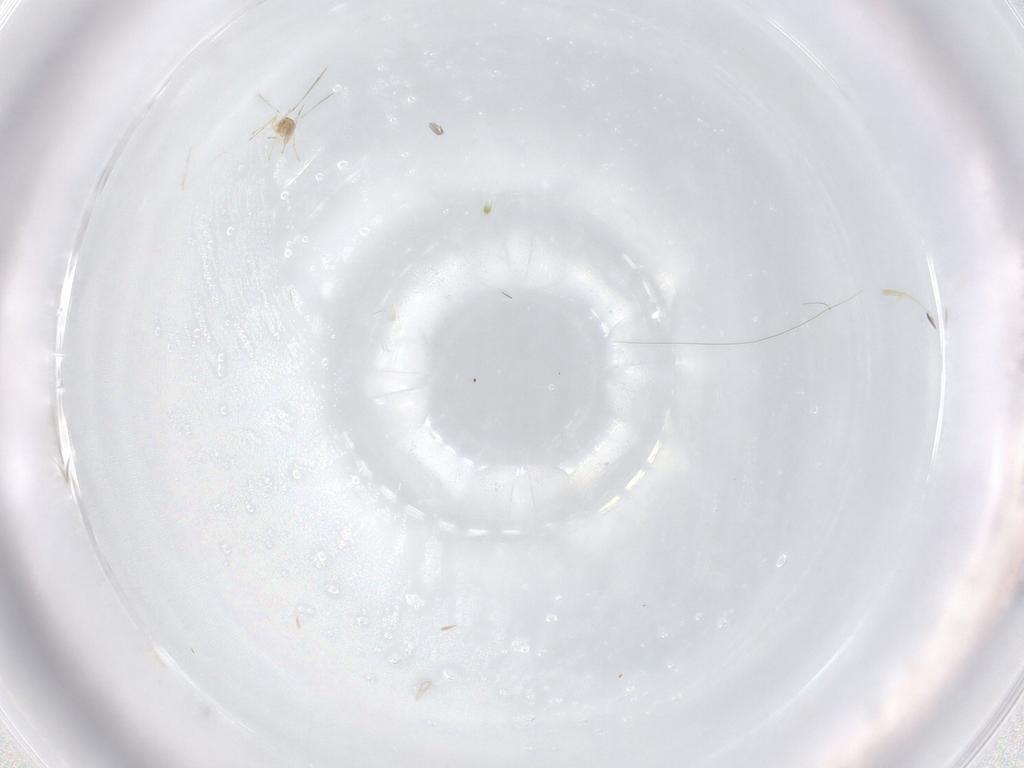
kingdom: Animalia
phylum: Arthropoda
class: Insecta
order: Hymenoptera
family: Mymaridae
